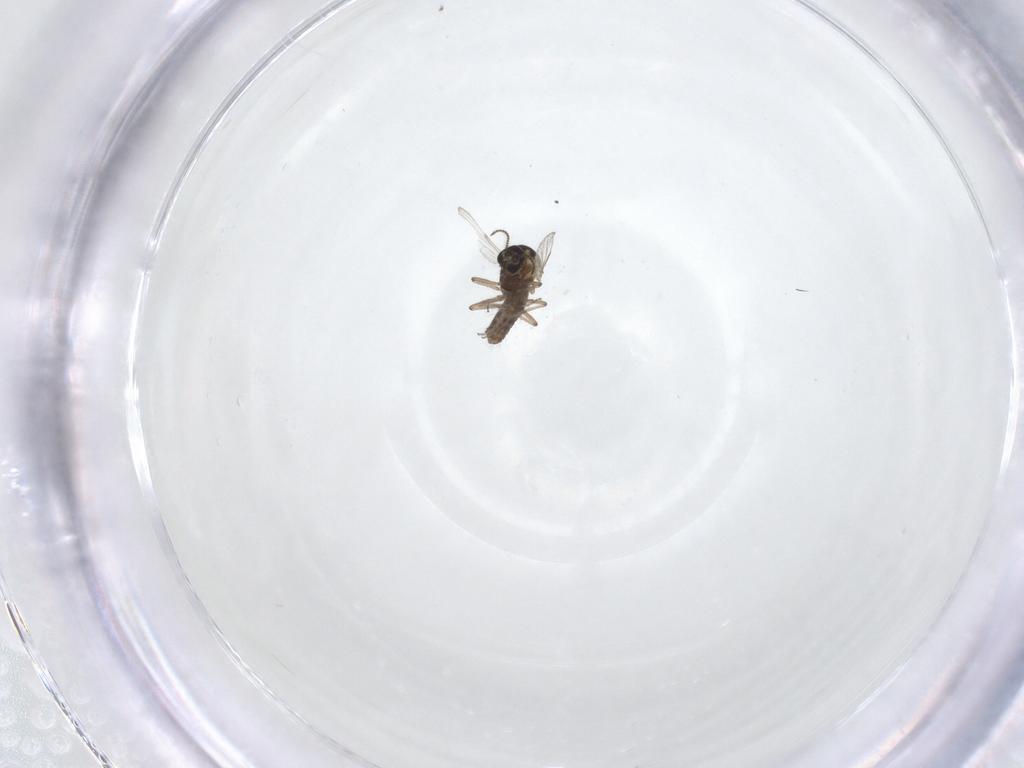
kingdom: Animalia
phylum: Arthropoda
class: Insecta
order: Diptera
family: Ceratopogonidae
